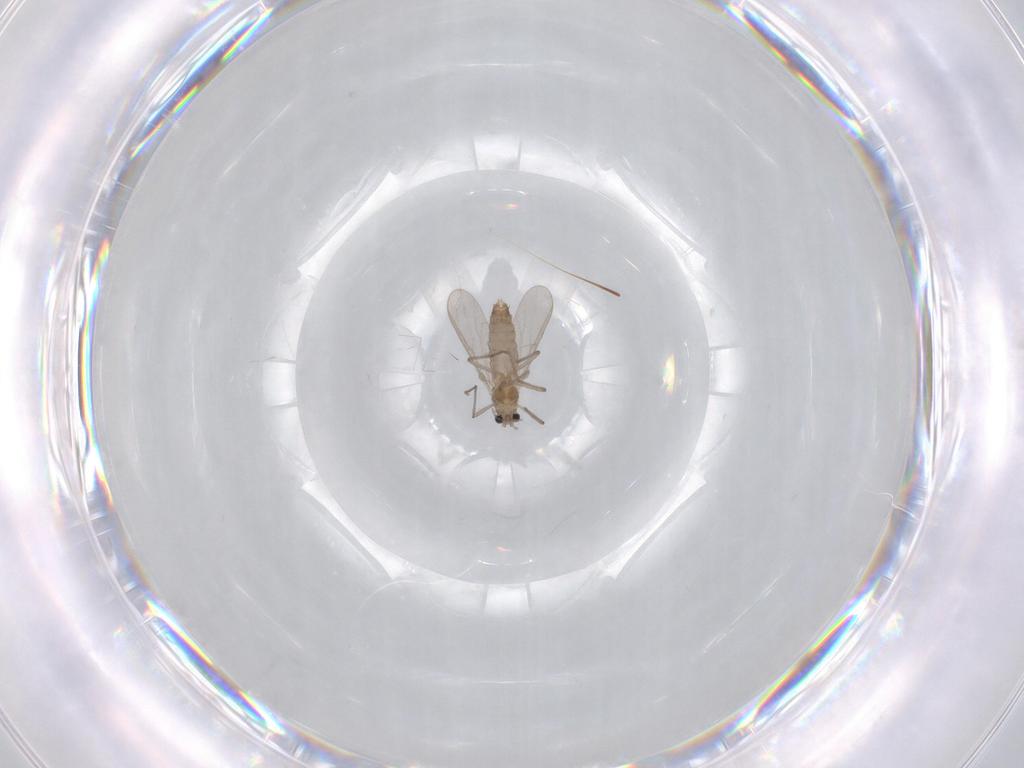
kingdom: Animalia
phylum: Arthropoda
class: Insecta
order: Diptera
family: Chironomidae
